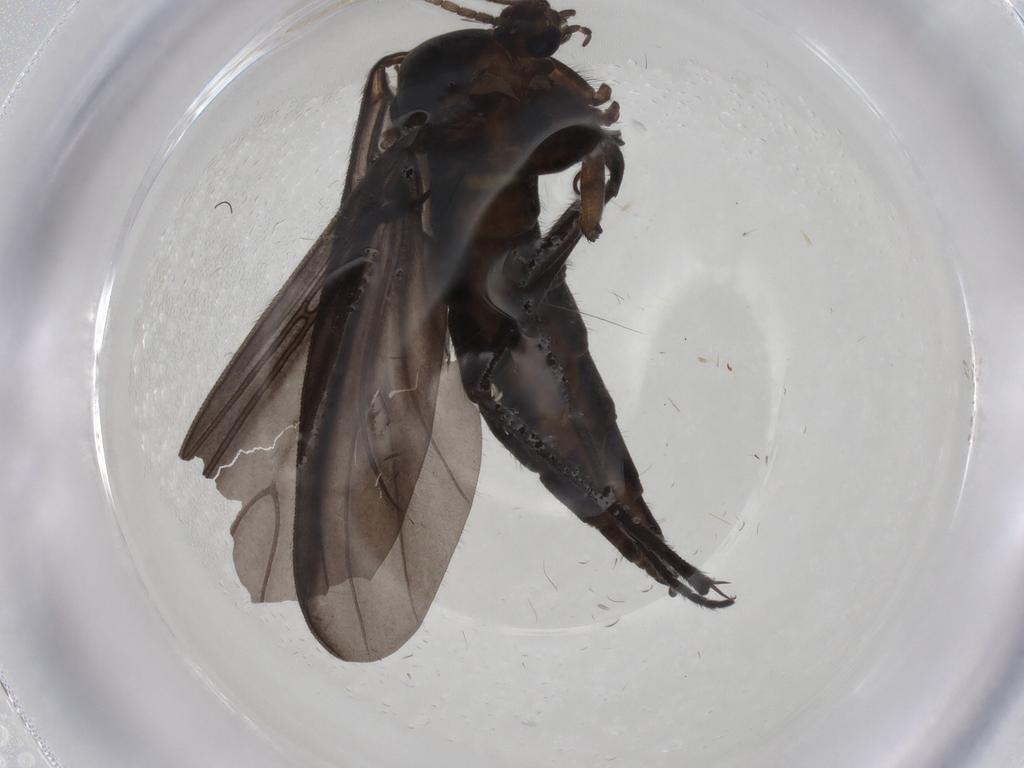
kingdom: Animalia
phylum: Arthropoda
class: Insecta
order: Diptera
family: Sciaridae
